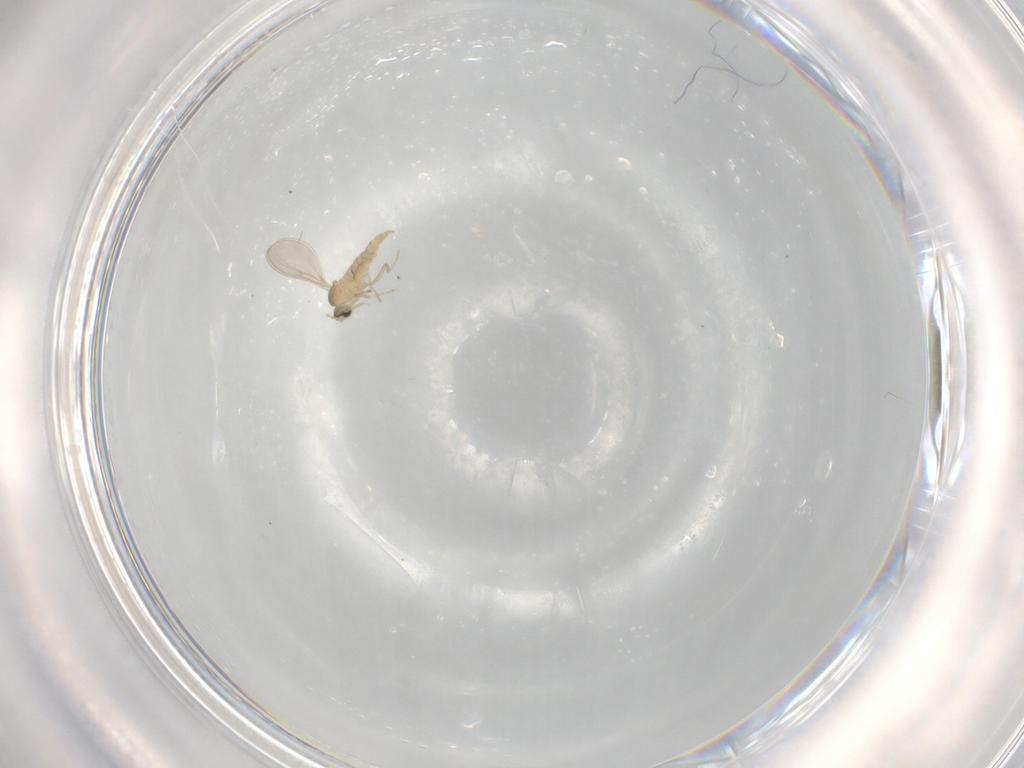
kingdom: Animalia
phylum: Arthropoda
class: Insecta
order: Diptera
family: Cecidomyiidae
